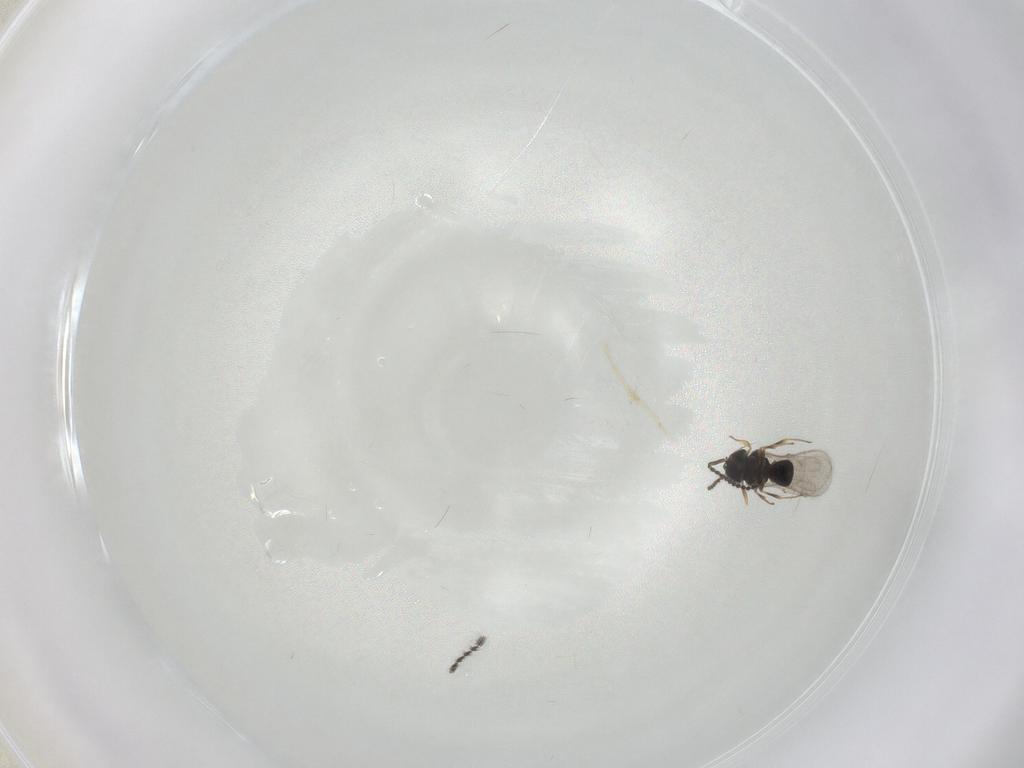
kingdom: Animalia
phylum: Arthropoda
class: Insecta
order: Hymenoptera
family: Scelionidae
